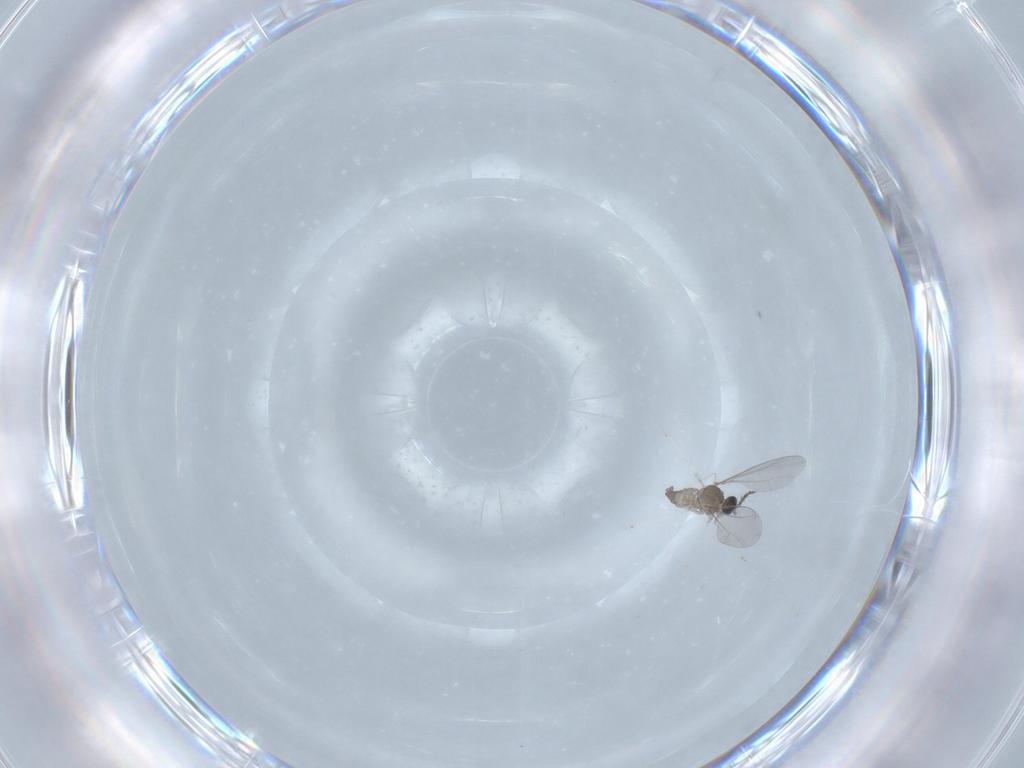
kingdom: Animalia
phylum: Arthropoda
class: Insecta
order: Diptera
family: Cecidomyiidae
